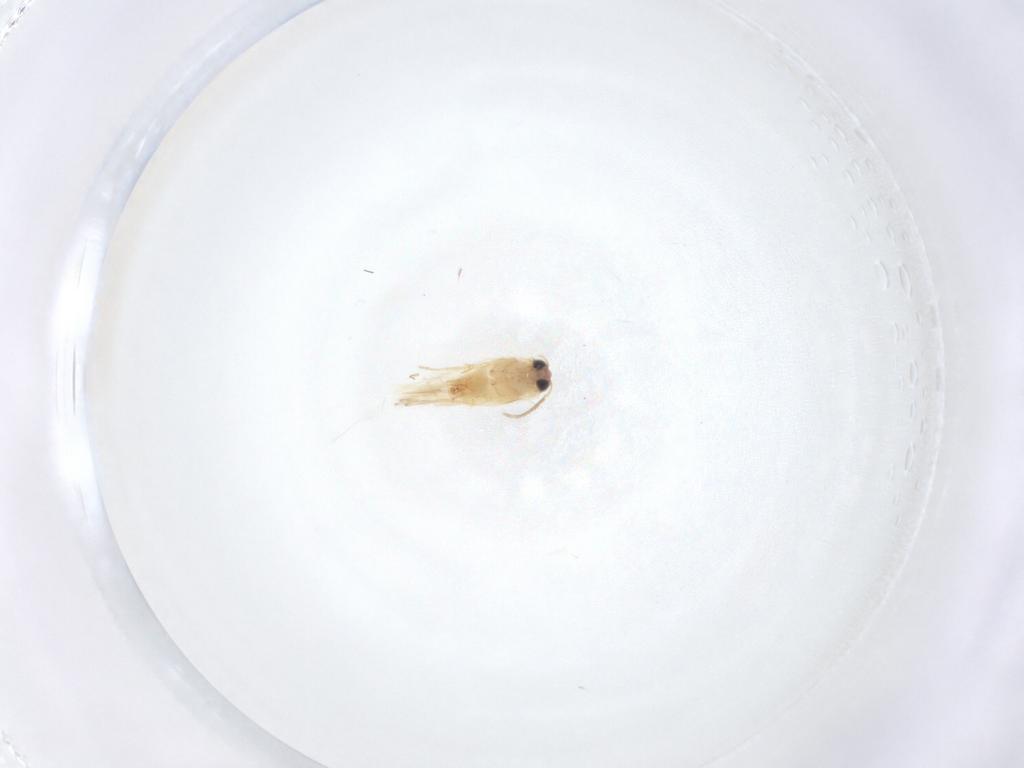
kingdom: Animalia
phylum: Arthropoda
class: Insecta
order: Lepidoptera
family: Crambidae
